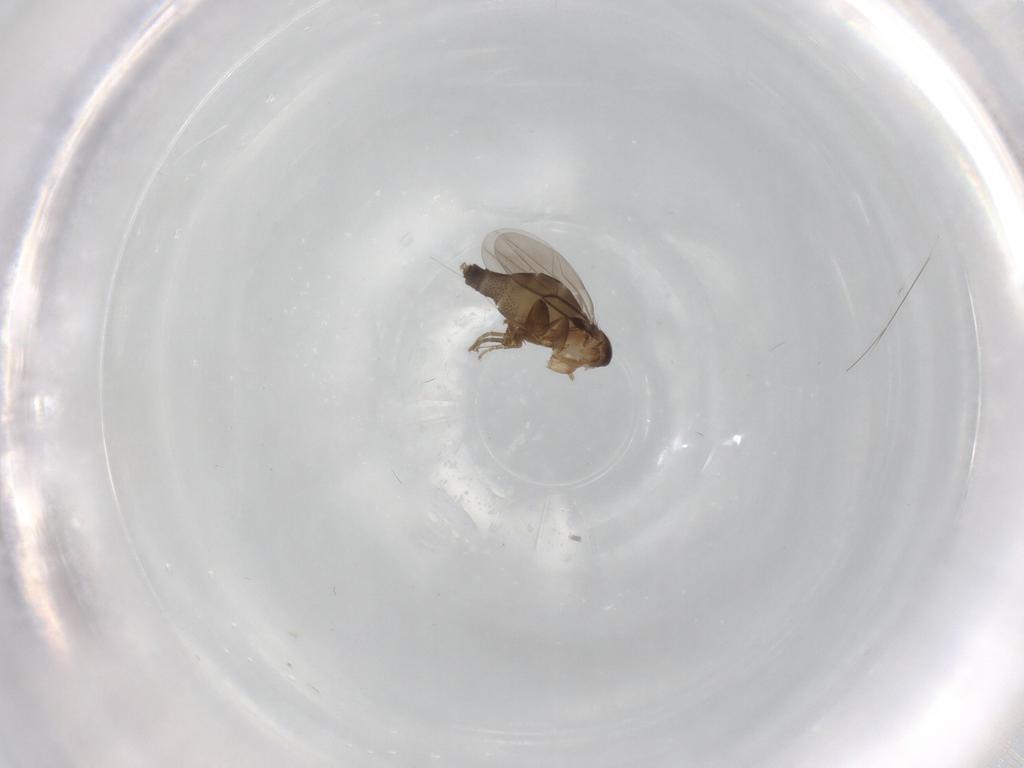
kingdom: Animalia
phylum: Arthropoda
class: Insecta
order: Diptera
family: Phoridae
